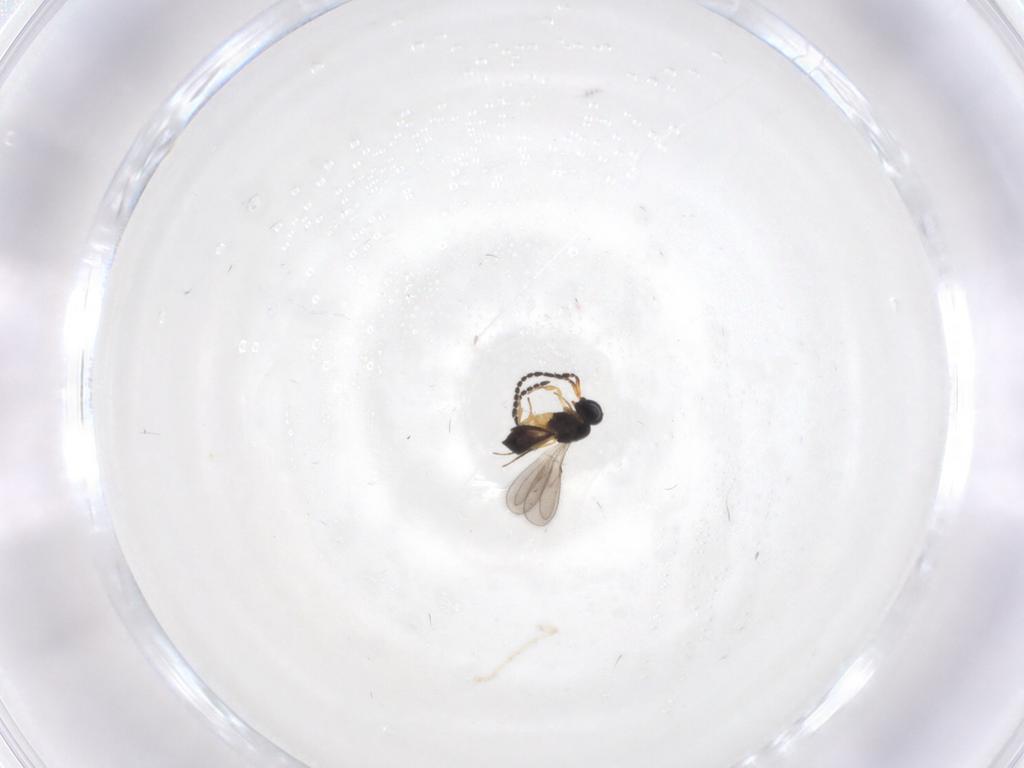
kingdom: Animalia
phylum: Arthropoda
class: Insecta
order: Hymenoptera
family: Scelionidae
